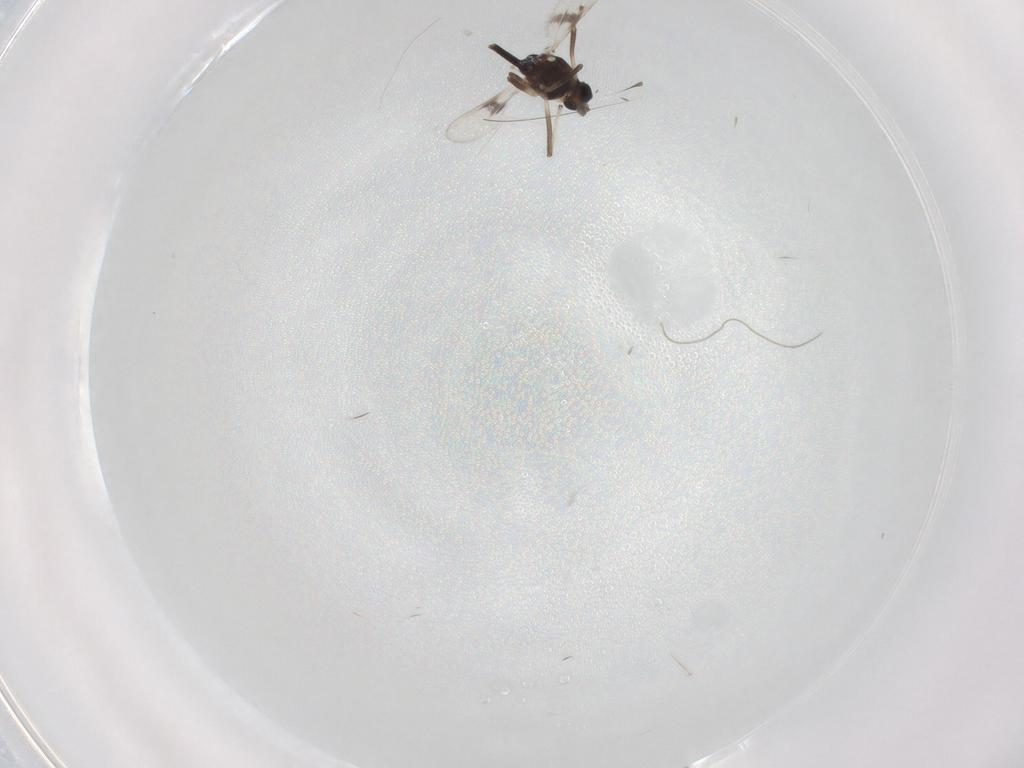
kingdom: Animalia
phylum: Arthropoda
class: Insecta
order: Diptera
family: Chironomidae
